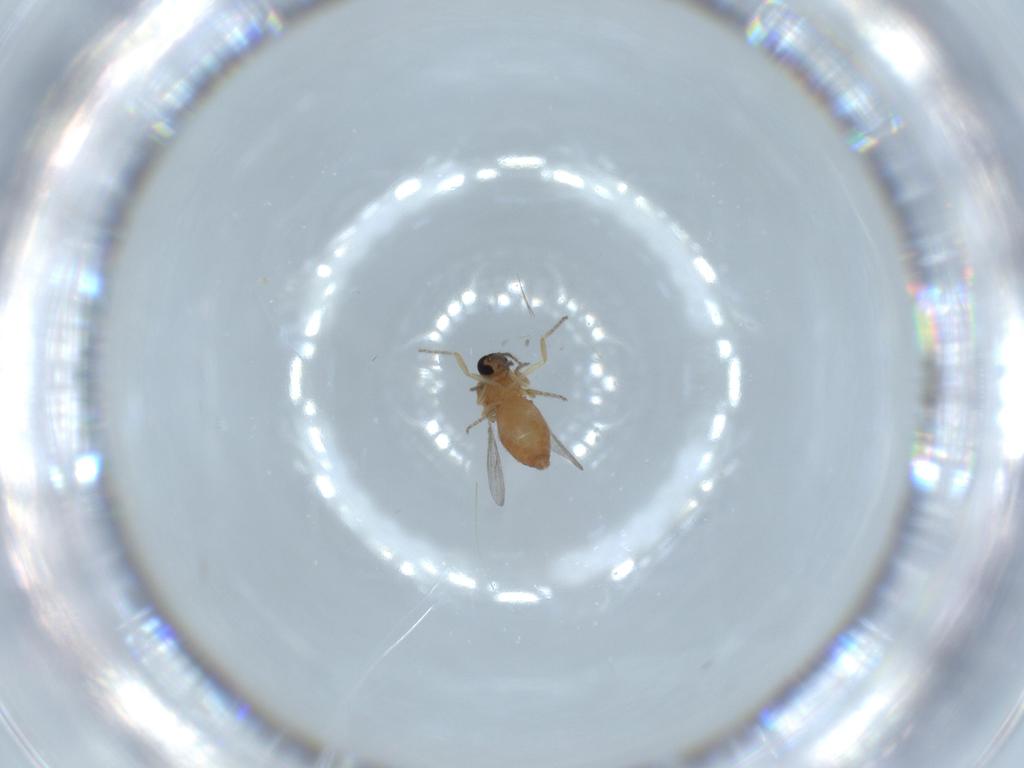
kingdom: Animalia
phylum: Arthropoda
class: Insecta
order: Diptera
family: Ceratopogonidae
